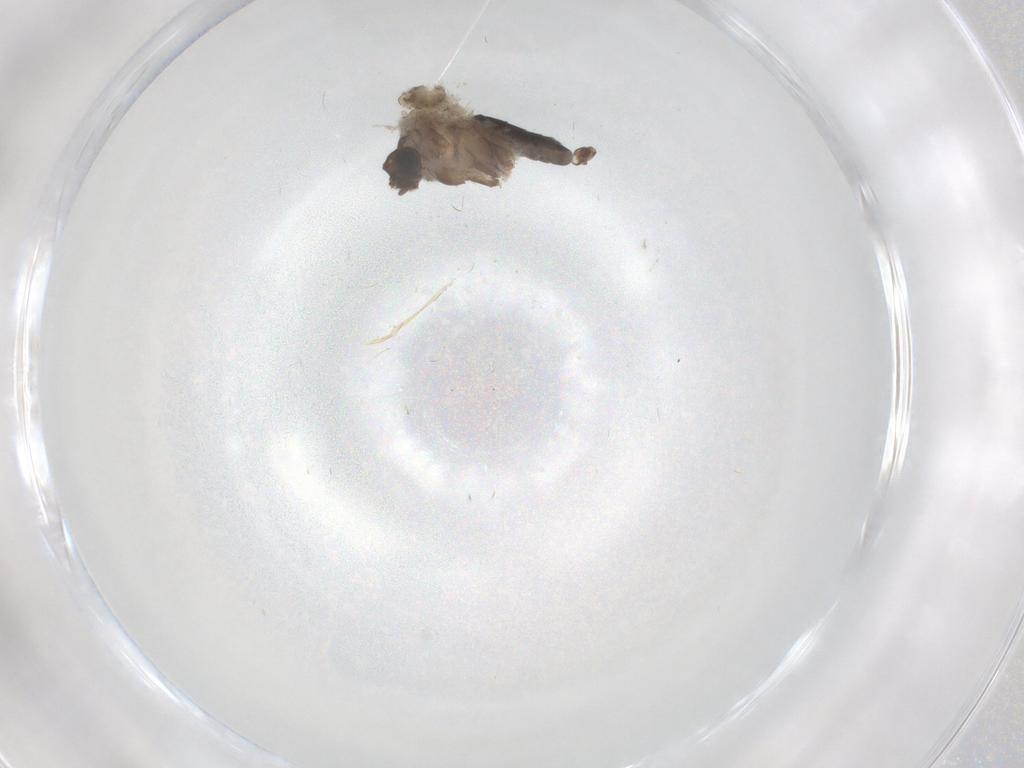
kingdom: Animalia
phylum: Arthropoda
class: Insecta
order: Diptera
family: Chironomidae
